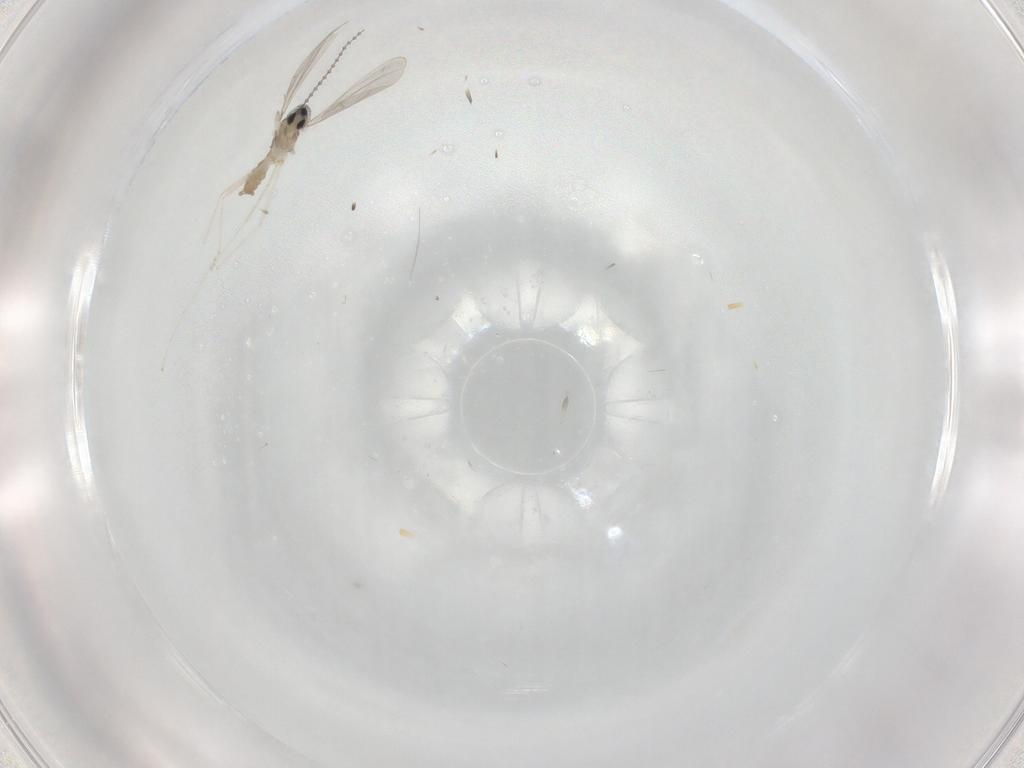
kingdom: Animalia
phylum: Arthropoda
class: Insecta
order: Diptera
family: Cecidomyiidae
